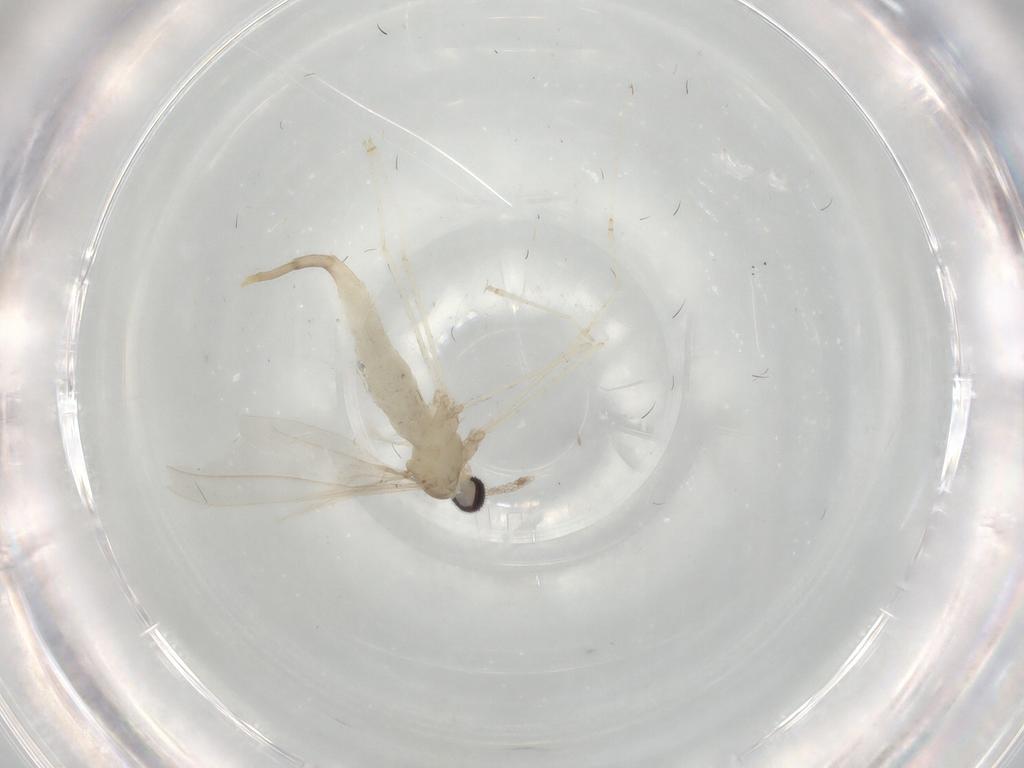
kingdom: Animalia
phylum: Arthropoda
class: Insecta
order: Diptera
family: Cecidomyiidae
